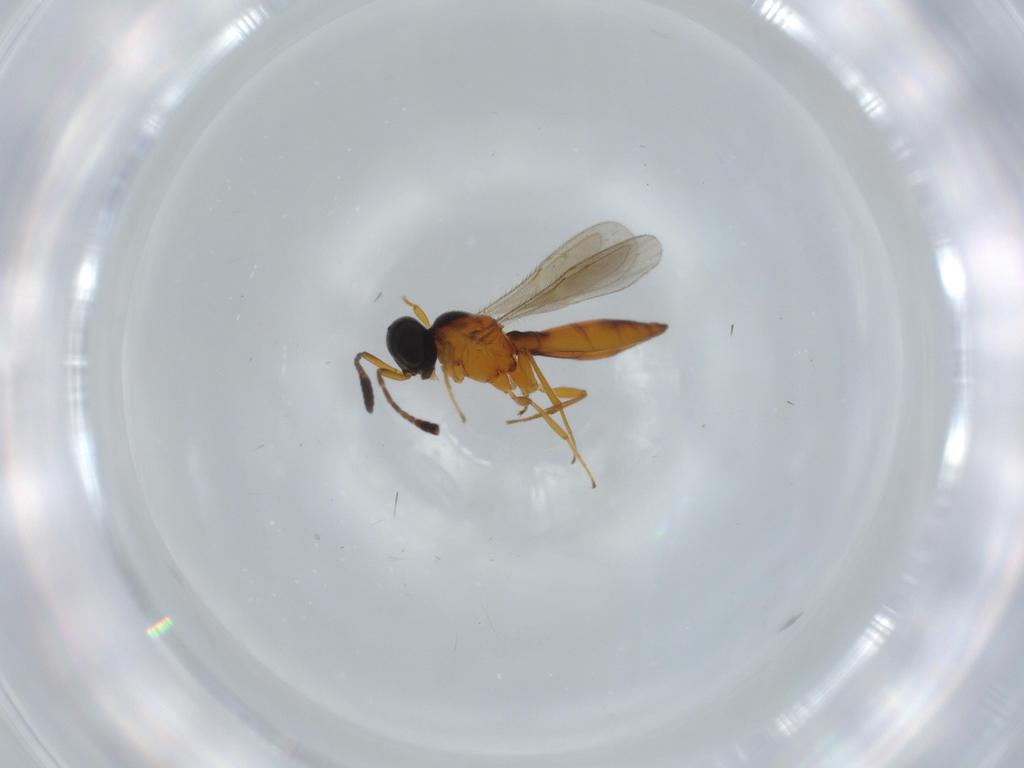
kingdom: Animalia
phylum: Arthropoda
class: Insecta
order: Hymenoptera
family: Scelionidae
